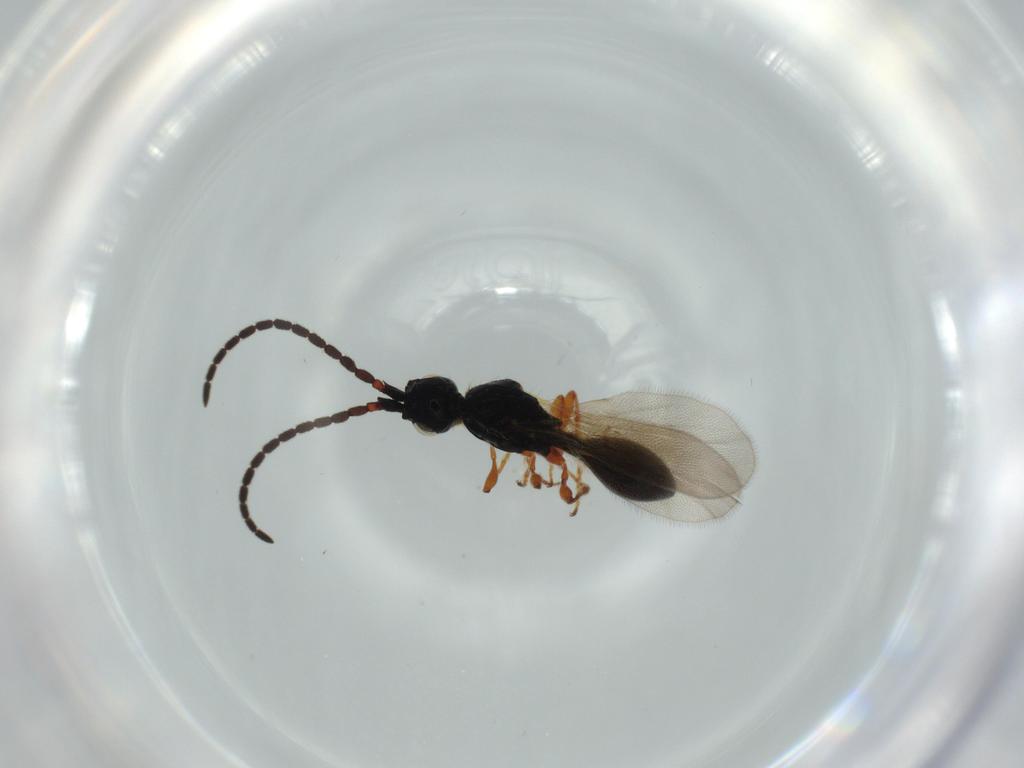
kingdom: Animalia
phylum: Arthropoda
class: Insecta
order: Hymenoptera
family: Diapriidae
